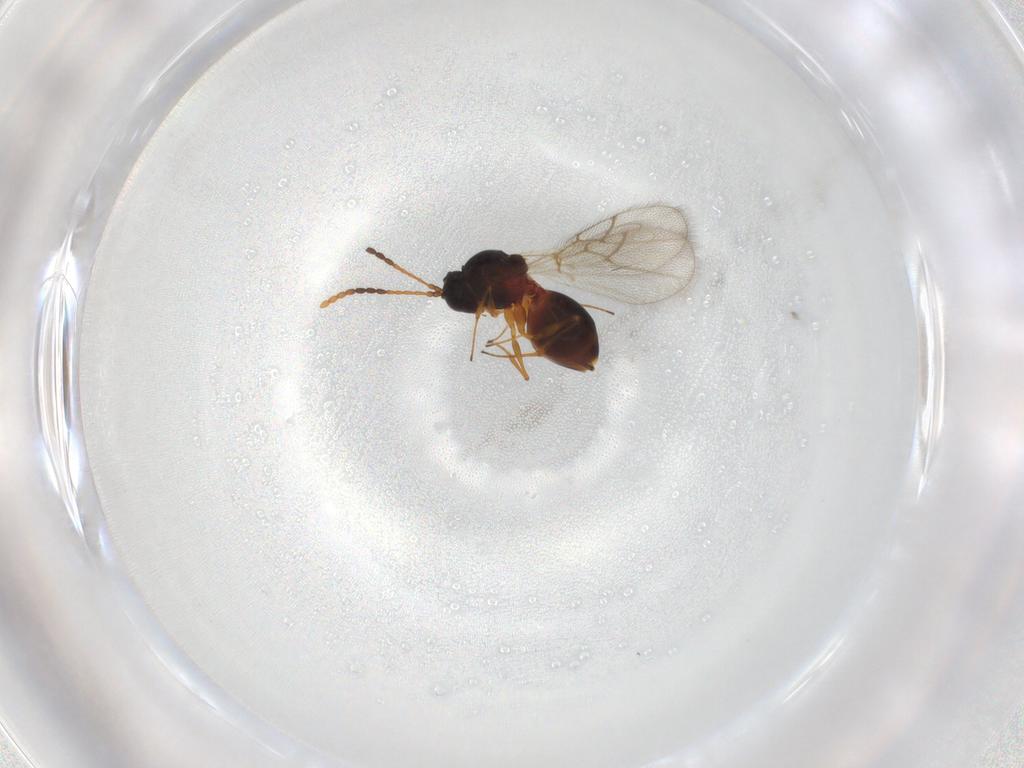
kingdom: Animalia
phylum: Arthropoda
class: Insecta
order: Hymenoptera
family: Figitidae
